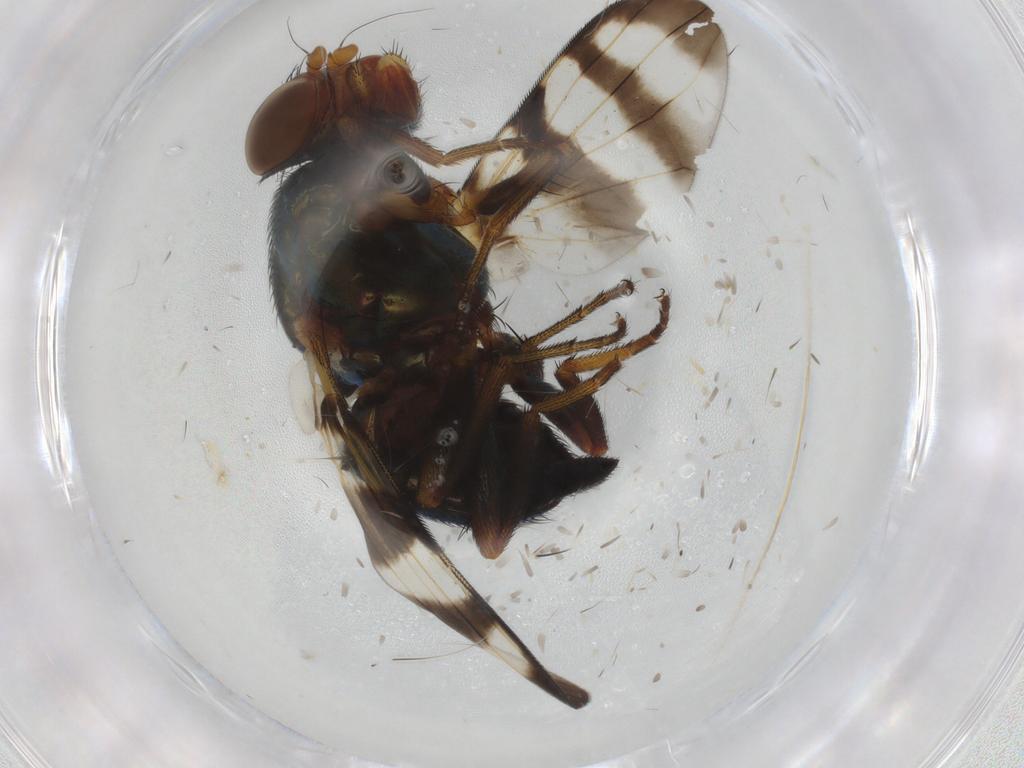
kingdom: Animalia
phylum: Arthropoda
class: Insecta
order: Diptera
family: Ulidiidae
